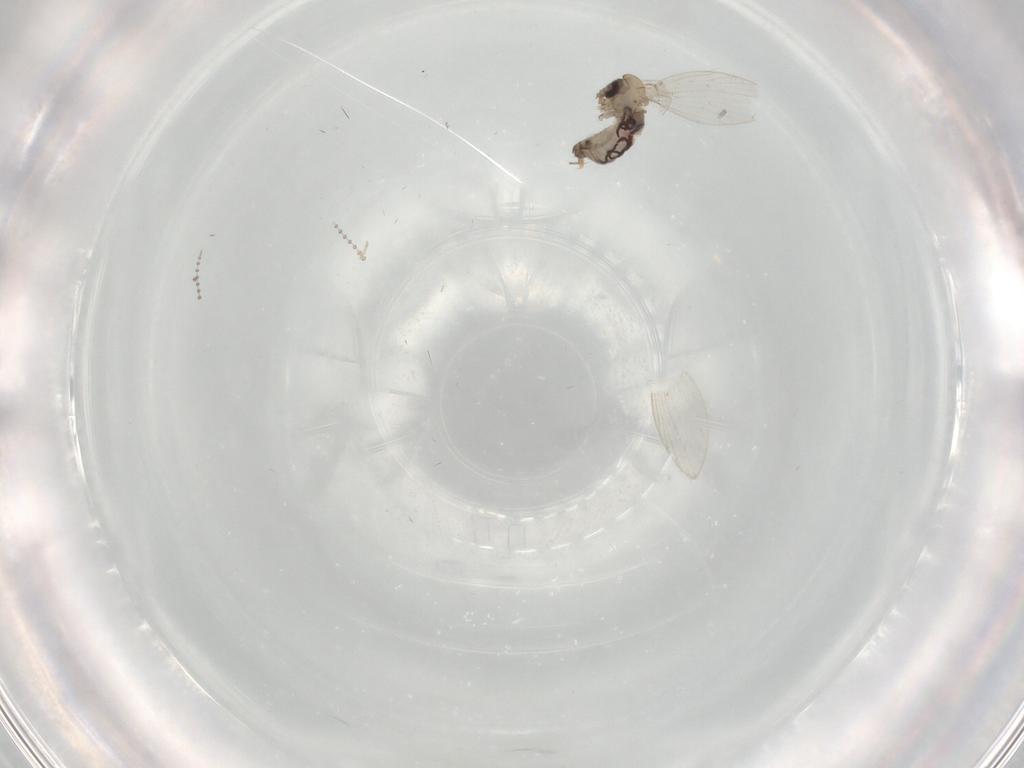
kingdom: Animalia
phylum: Arthropoda
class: Insecta
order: Diptera
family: Psychodidae
